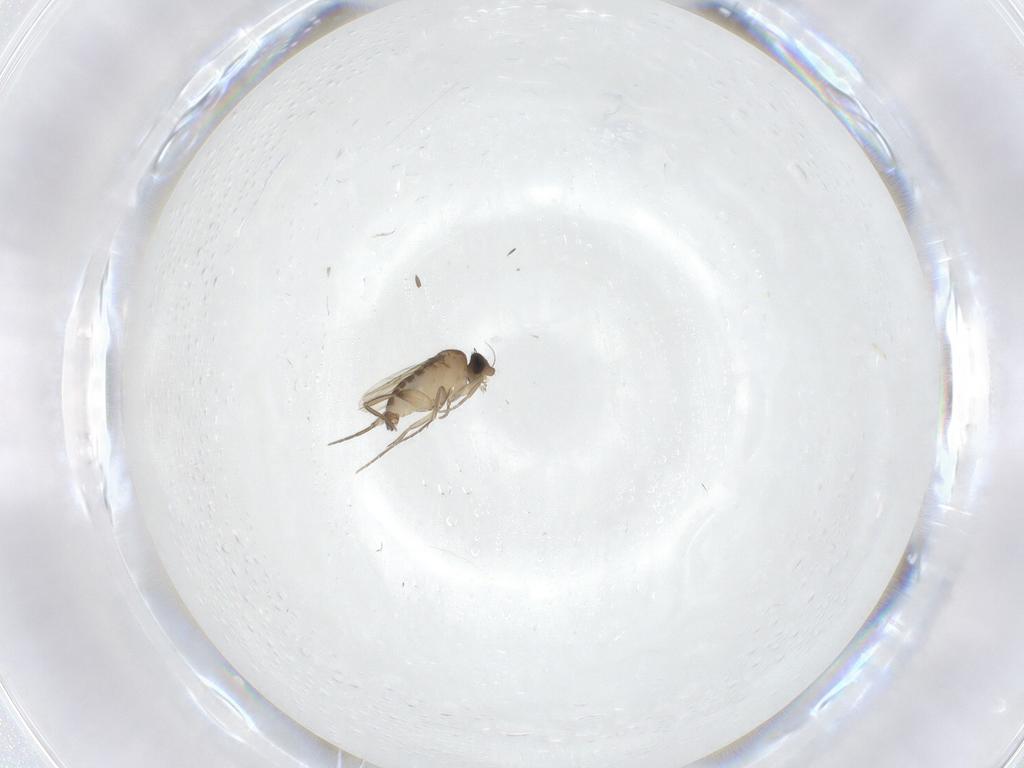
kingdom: Animalia
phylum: Arthropoda
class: Insecta
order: Diptera
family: Phoridae
